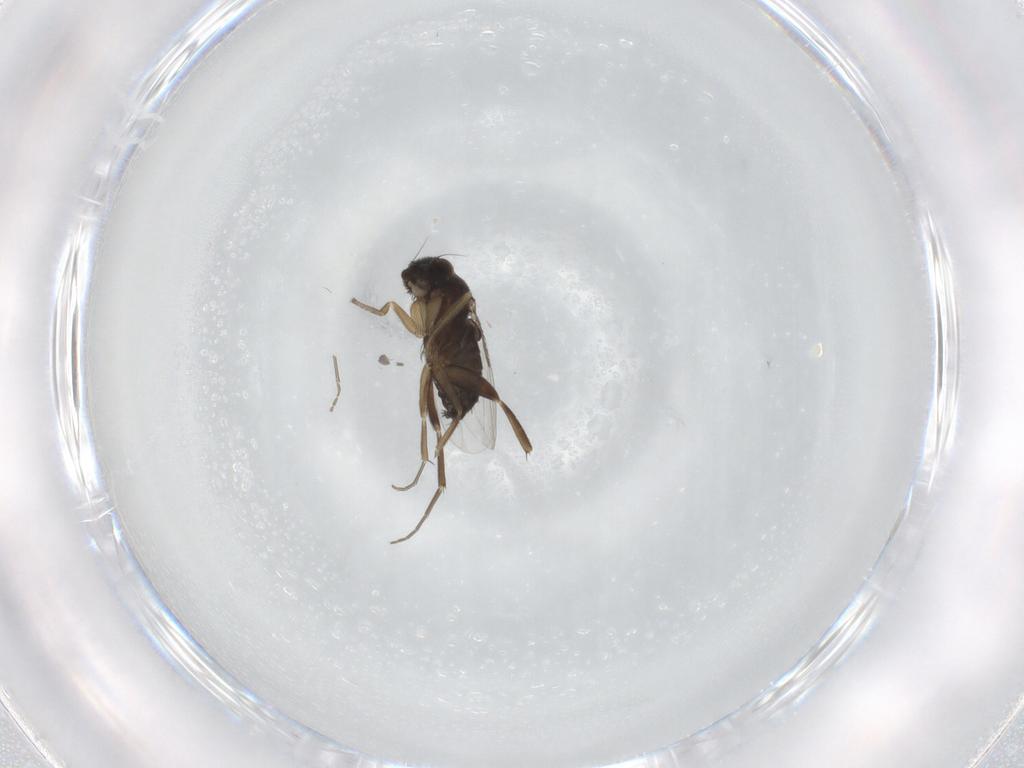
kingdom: Animalia
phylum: Arthropoda
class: Insecta
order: Diptera
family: Phoridae
